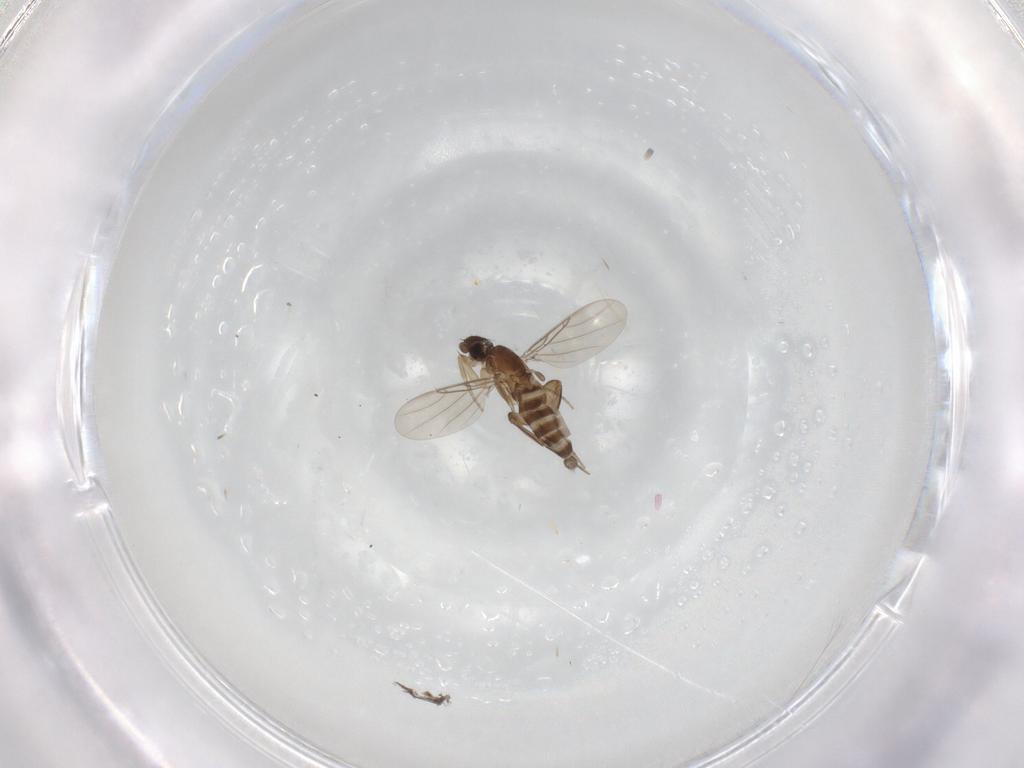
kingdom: Animalia
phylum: Arthropoda
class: Insecta
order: Diptera
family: Phoridae
